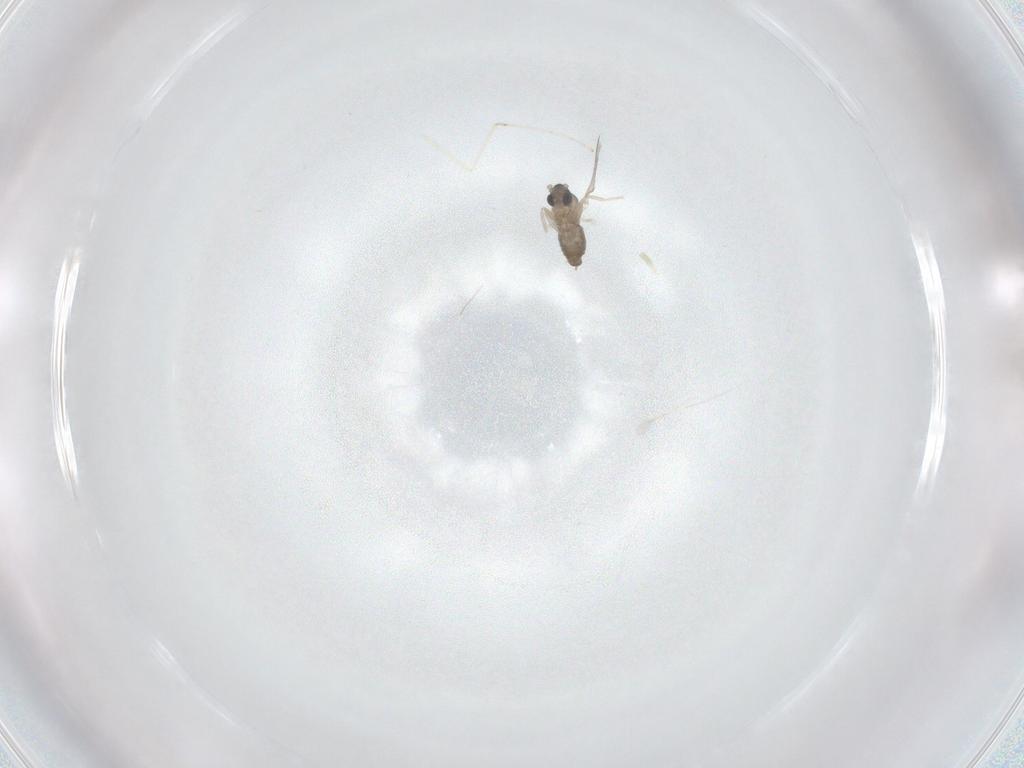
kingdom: Animalia
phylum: Arthropoda
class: Insecta
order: Diptera
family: Cecidomyiidae
